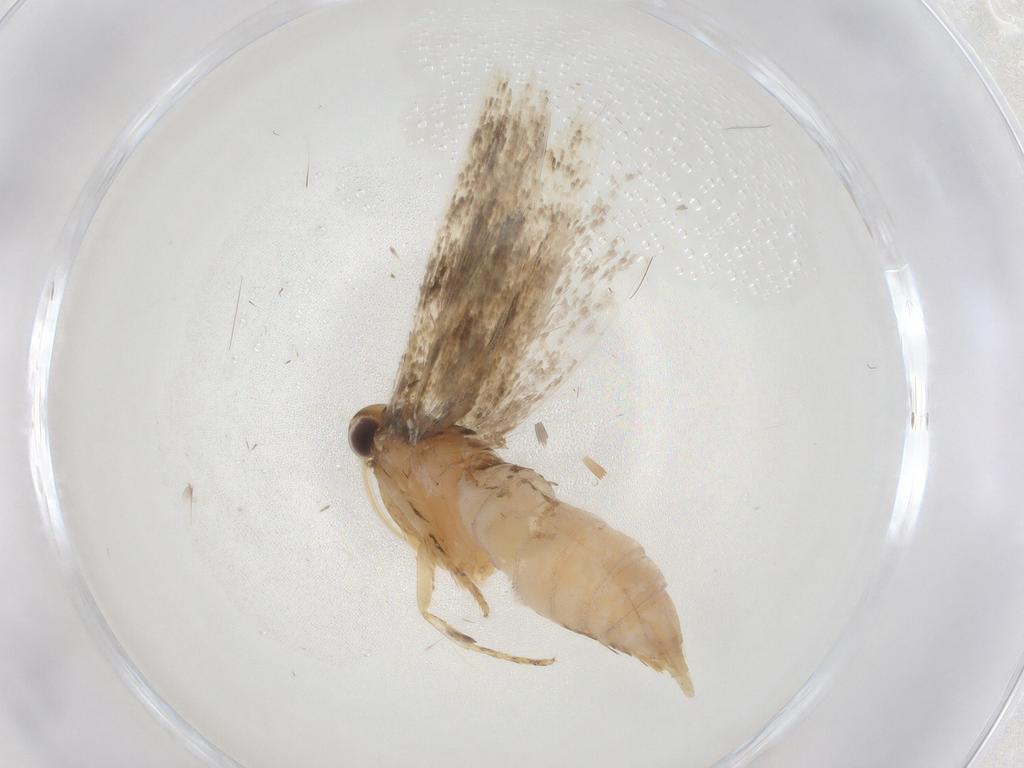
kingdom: Animalia
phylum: Arthropoda
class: Insecta
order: Lepidoptera
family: Gelechiidae
